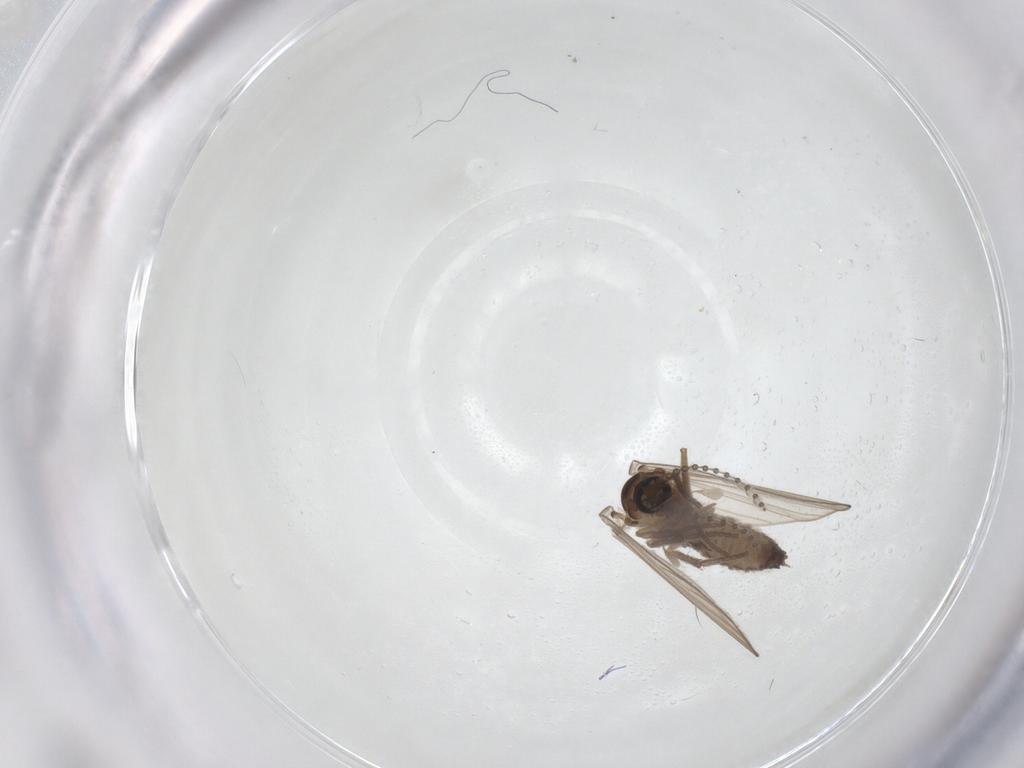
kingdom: Animalia
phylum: Arthropoda
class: Insecta
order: Diptera
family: Psychodidae
